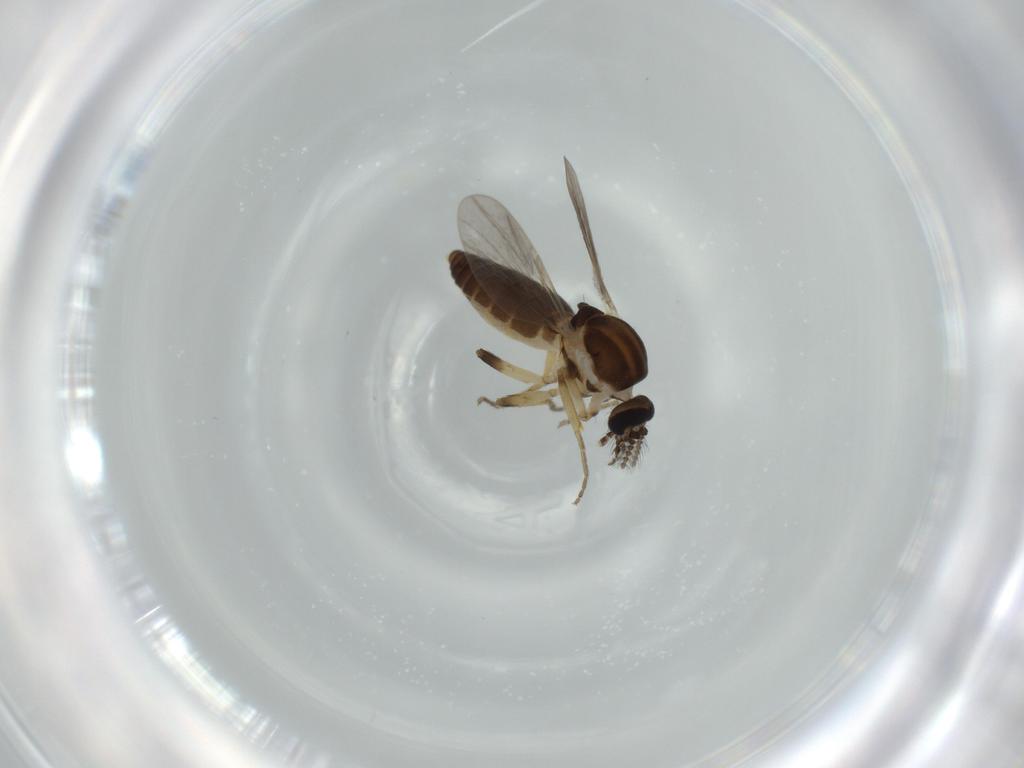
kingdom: Animalia
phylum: Arthropoda
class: Insecta
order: Diptera
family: Ceratopogonidae
